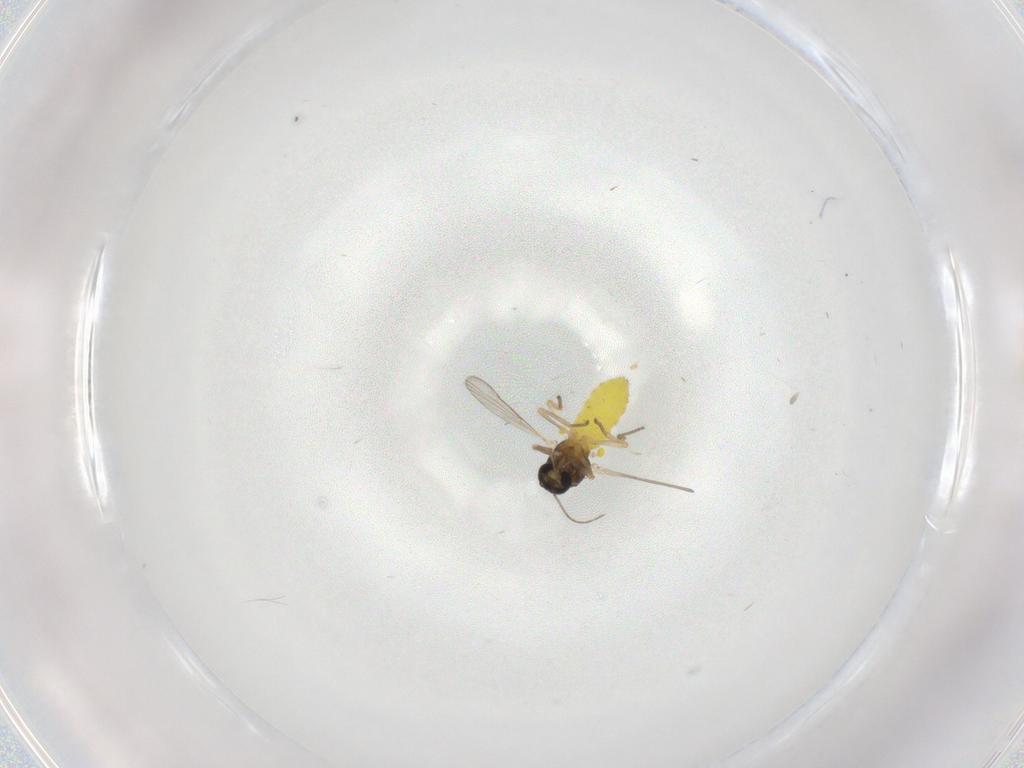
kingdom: Animalia
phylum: Arthropoda
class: Insecta
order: Diptera
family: Ceratopogonidae
